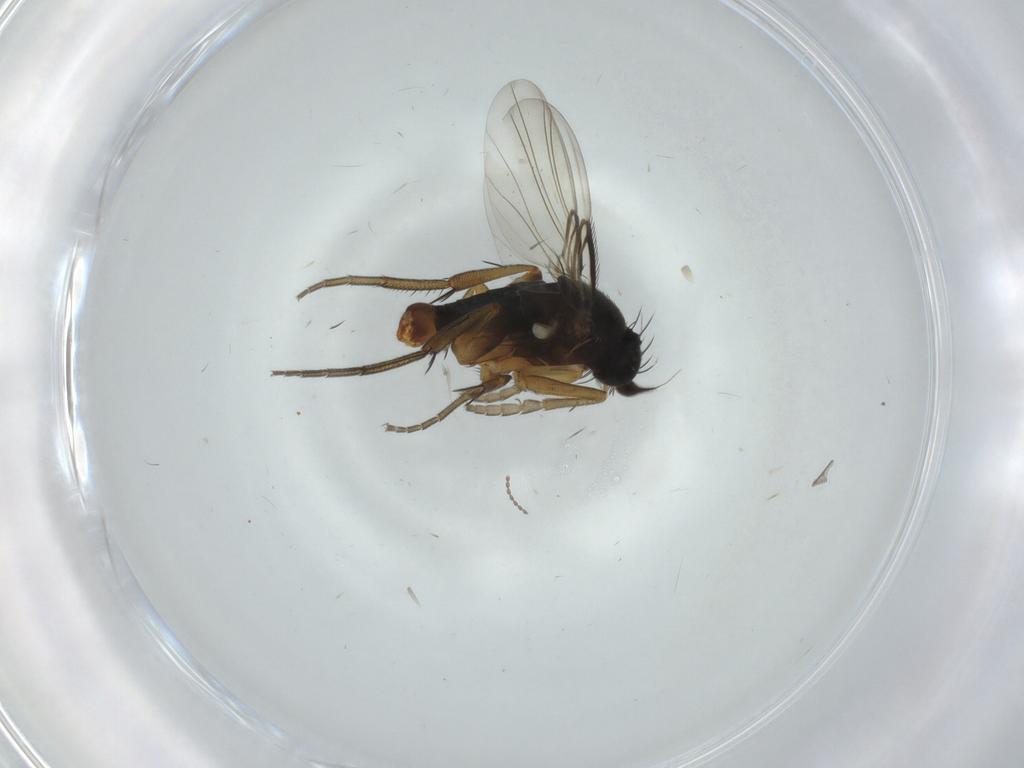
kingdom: Animalia
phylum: Arthropoda
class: Insecta
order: Diptera
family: Phoridae
